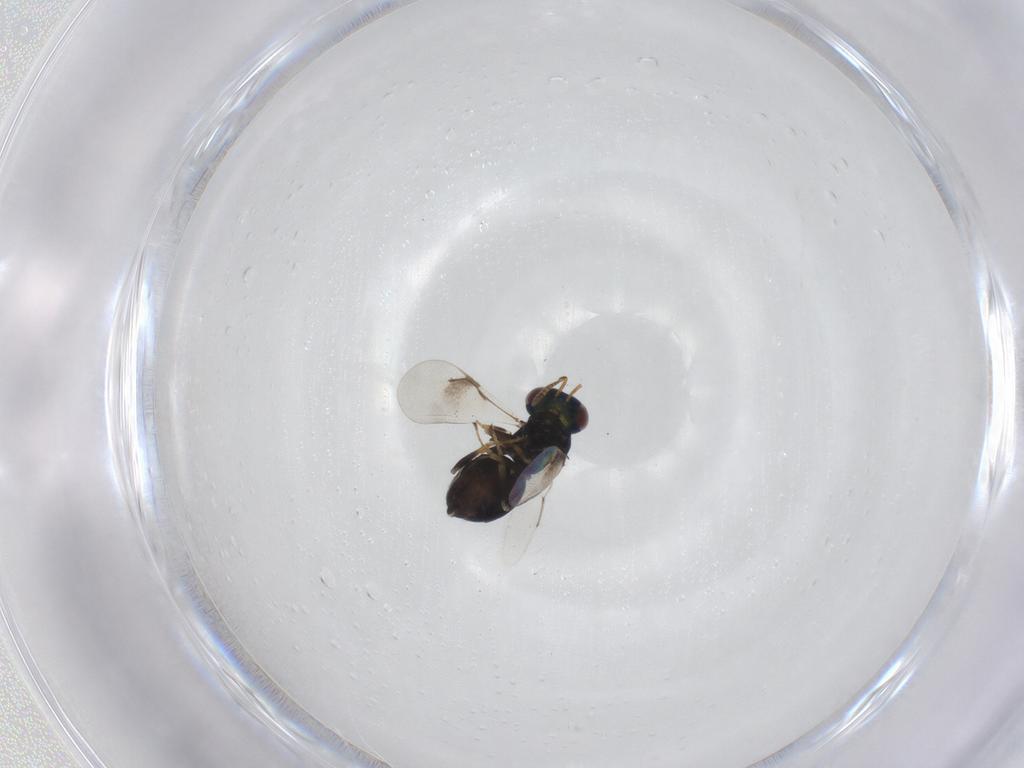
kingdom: Animalia
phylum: Arthropoda
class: Insecta
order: Hymenoptera
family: Pteromalidae
